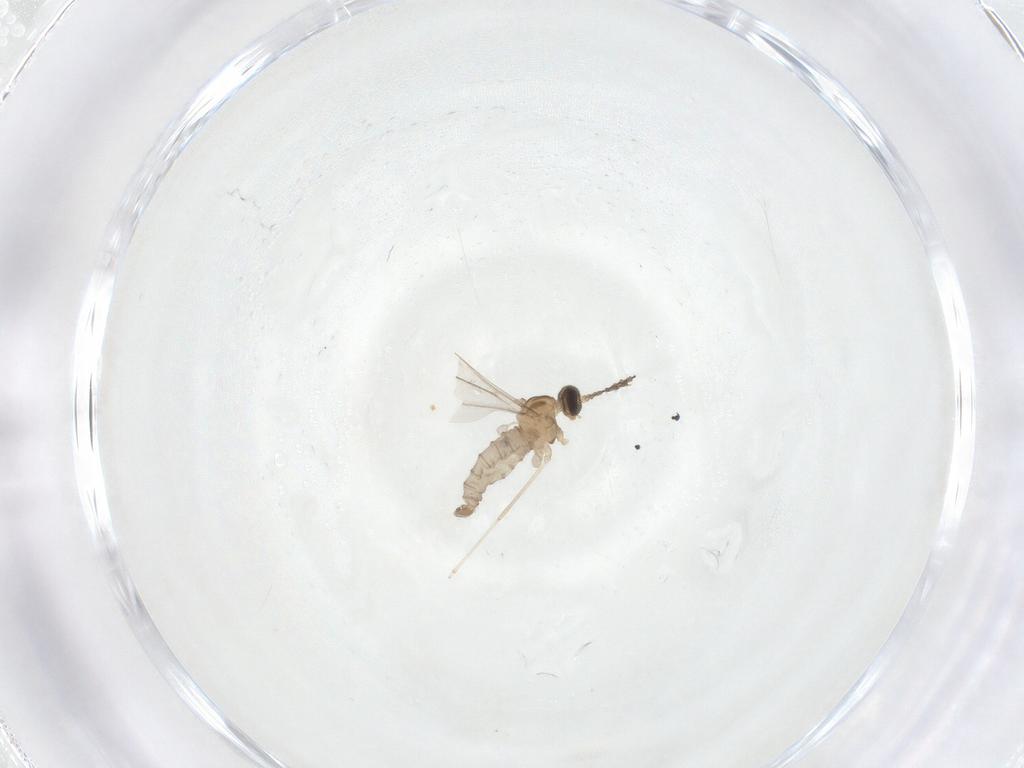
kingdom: Animalia
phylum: Arthropoda
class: Insecta
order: Diptera
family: Cecidomyiidae
